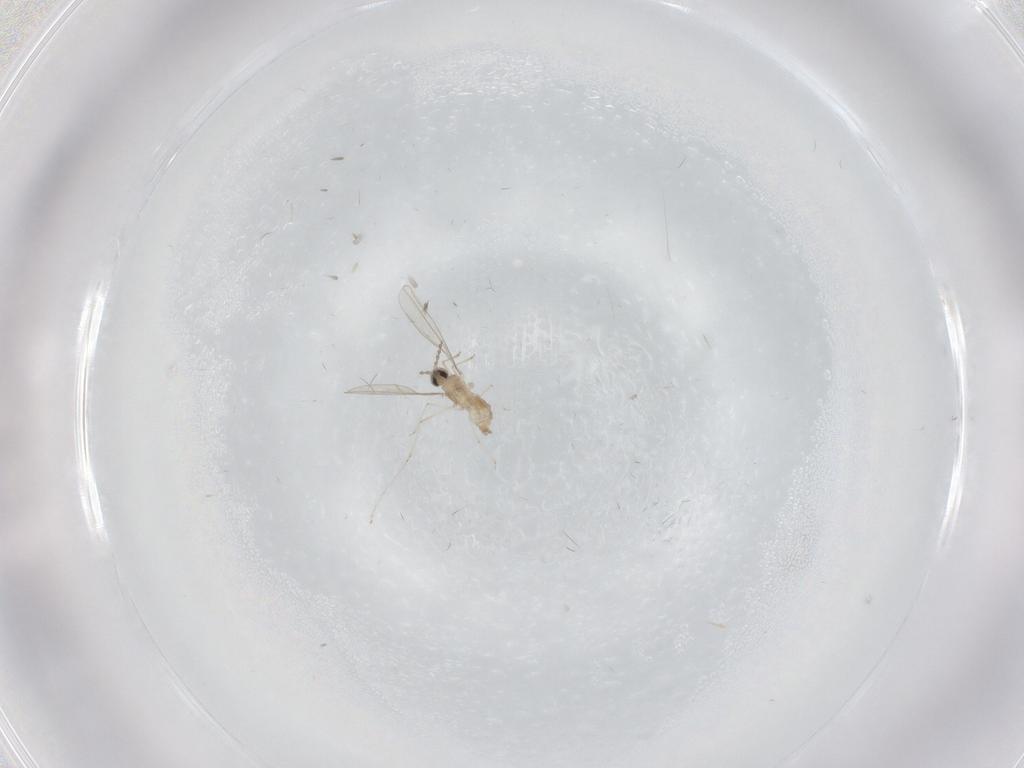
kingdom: Animalia
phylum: Arthropoda
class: Insecta
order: Diptera
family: Cecidomyiidae
